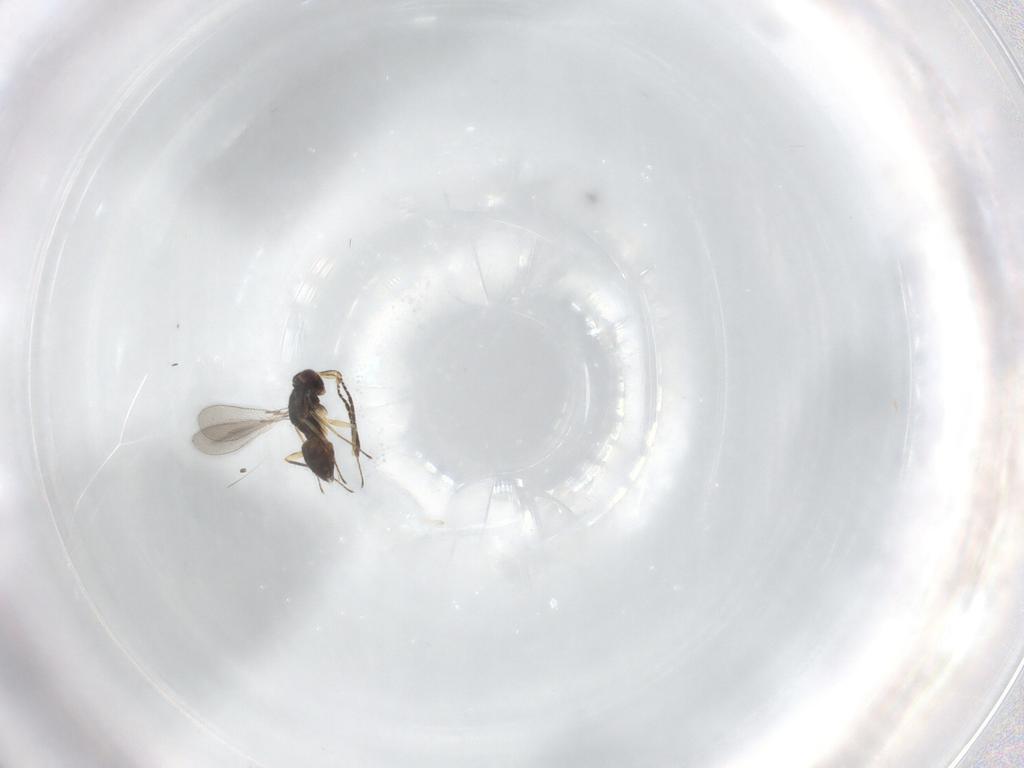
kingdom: Animalia
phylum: Arthropoda
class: Insecta
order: Hymenoptera
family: Mymaridae
